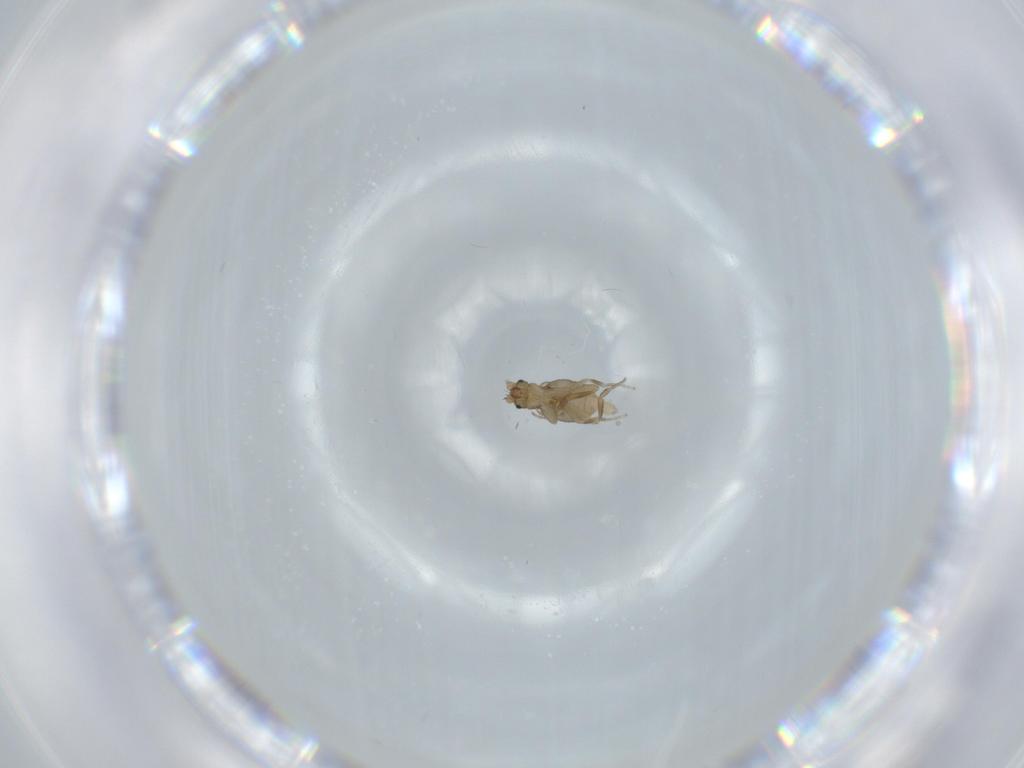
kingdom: Animalia
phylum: Arthropoda
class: Insecta
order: Diptera
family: Phoridae
